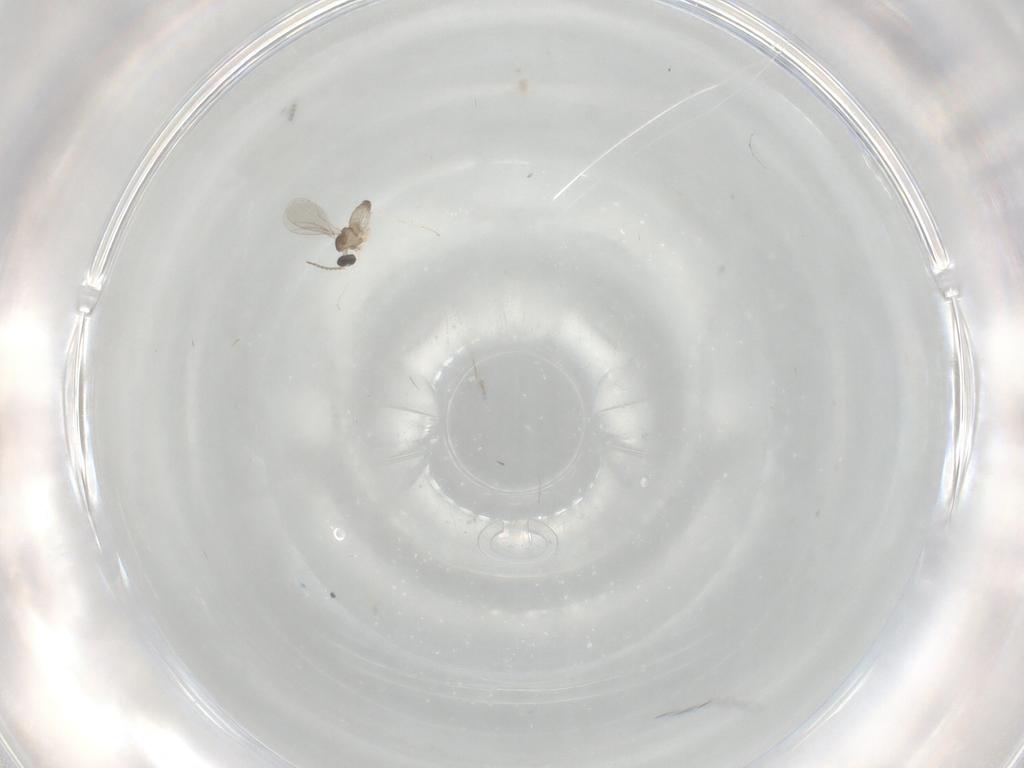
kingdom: Animalia
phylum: Arthropoda
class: Insecta
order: Diptera
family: Cecidomyiidae
